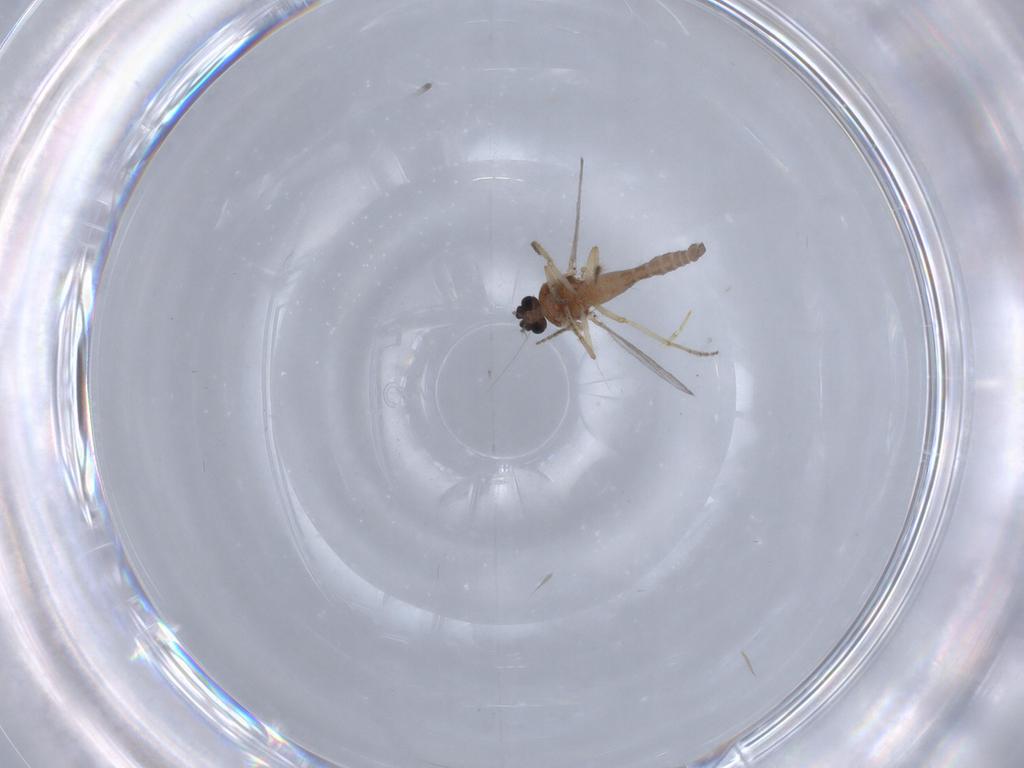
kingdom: Animalia
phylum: Arthropoda
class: Insecta
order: Diptera
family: Ceratopogonidae
